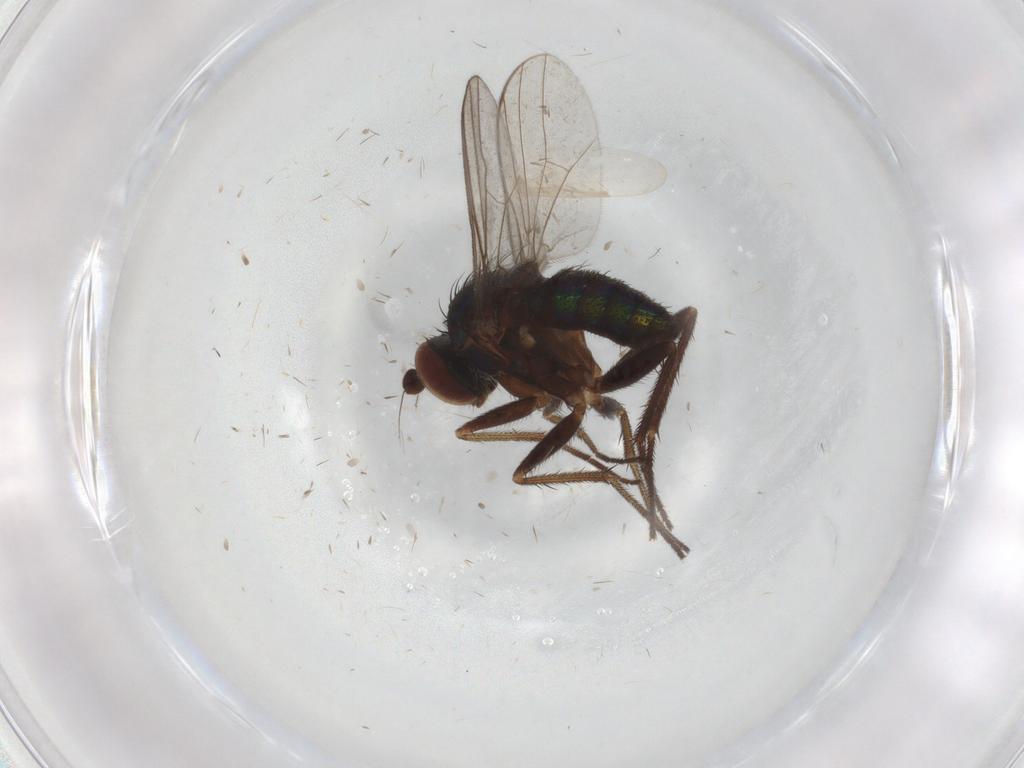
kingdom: Animalia
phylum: Arthropoda
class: Insecta
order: Diptera
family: Dolichopodidae
